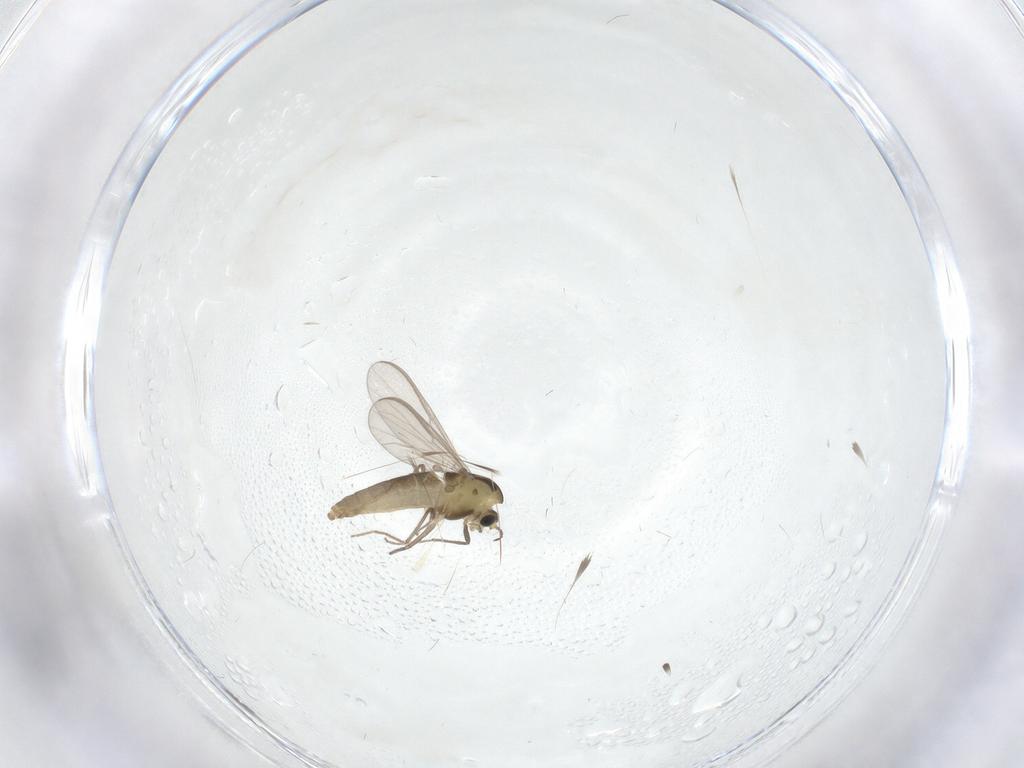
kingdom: Animalia
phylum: Arthropoda
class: Insecta
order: Diptera
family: Chironomidae
